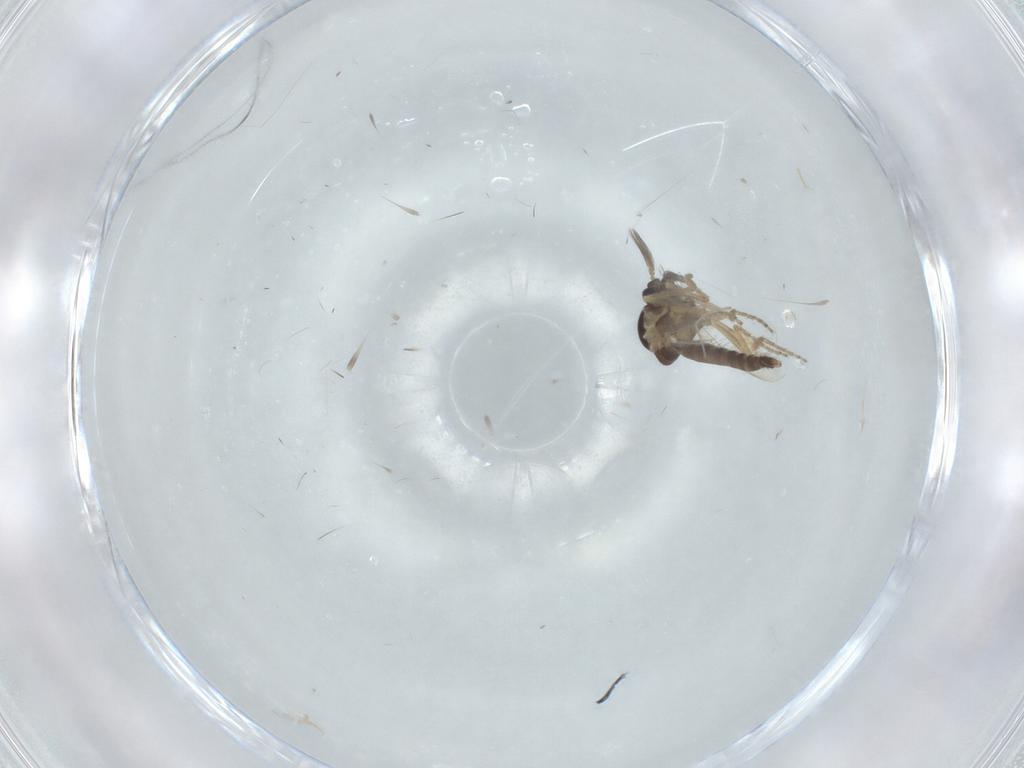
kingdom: Animalia
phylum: Arthropoda
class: Insecta
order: Diptera
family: Ceratopogonidae
